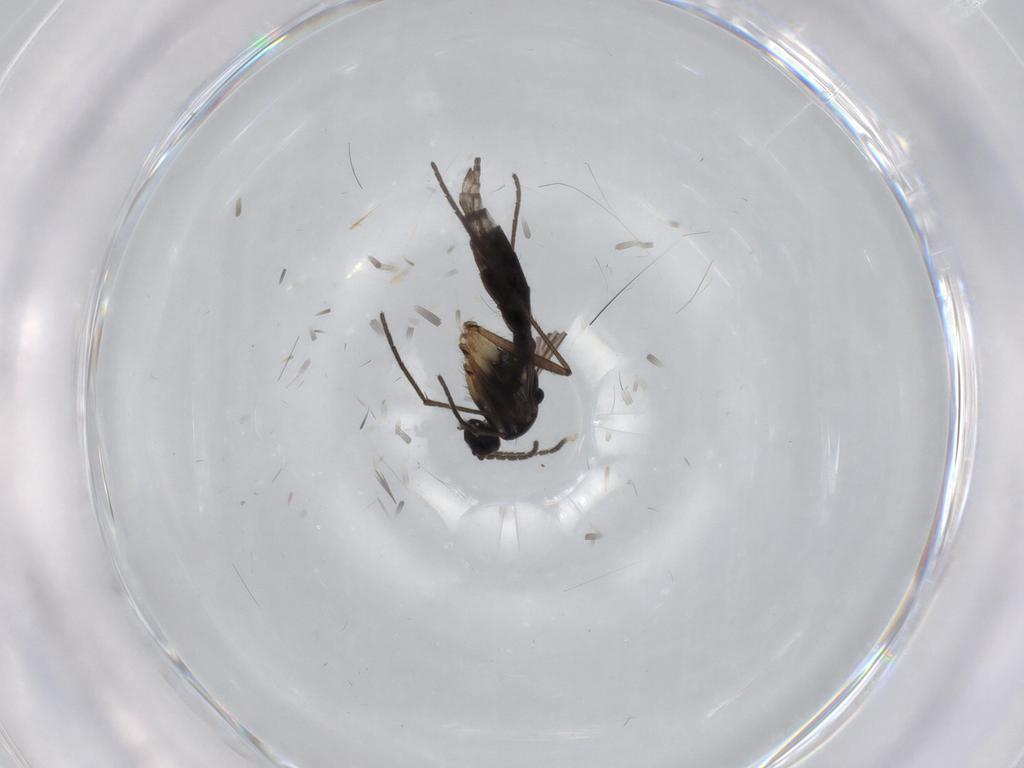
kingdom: Animalia
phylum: Arthropoda
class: Insecta
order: Diptera
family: Sciaridae
